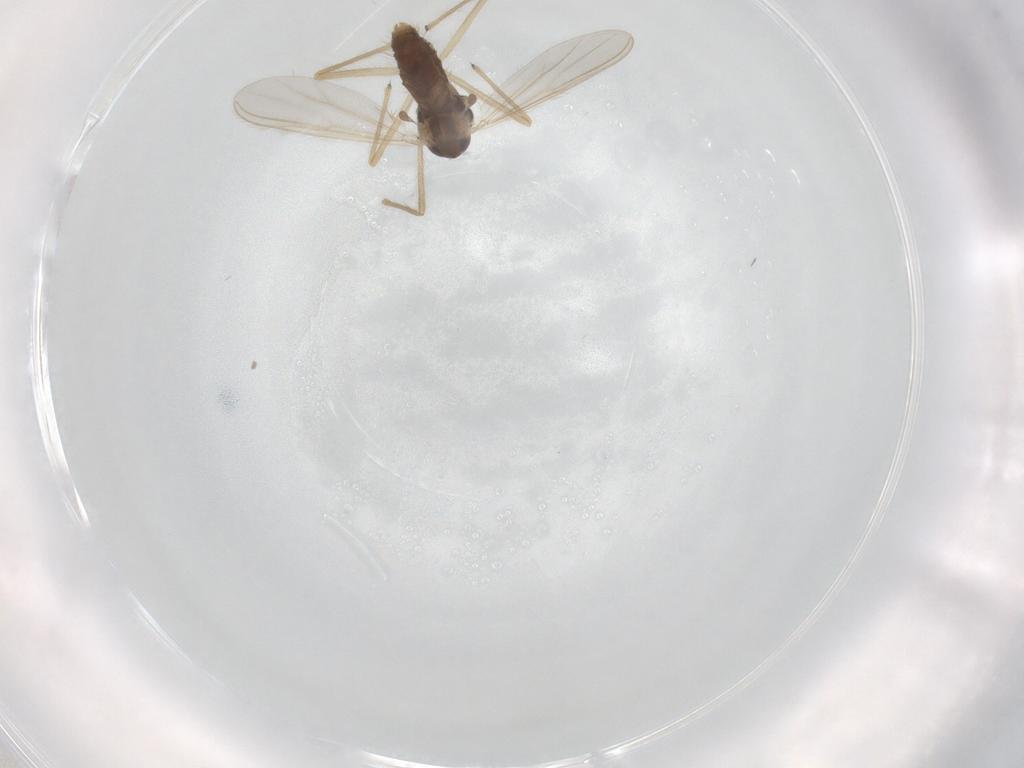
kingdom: Animalia
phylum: Arthropoda
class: Insecta
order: Diptera
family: Chironomidae
